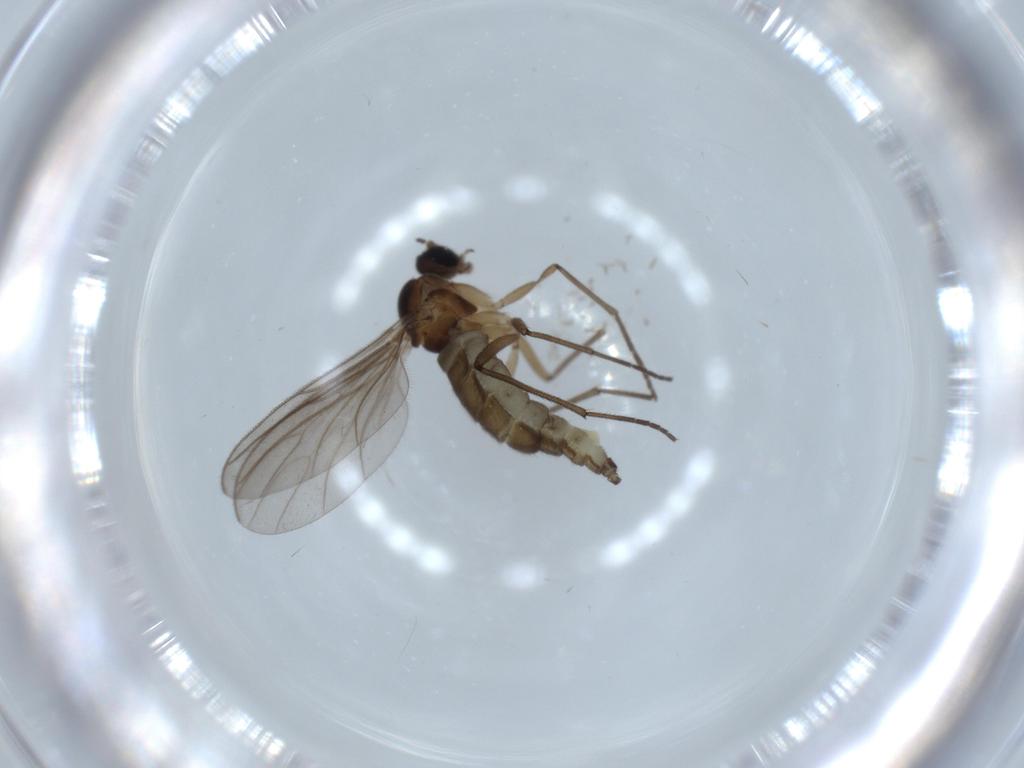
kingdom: Animalia
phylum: Arthropoda
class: Insecta
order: Diptera
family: Sciaridae
